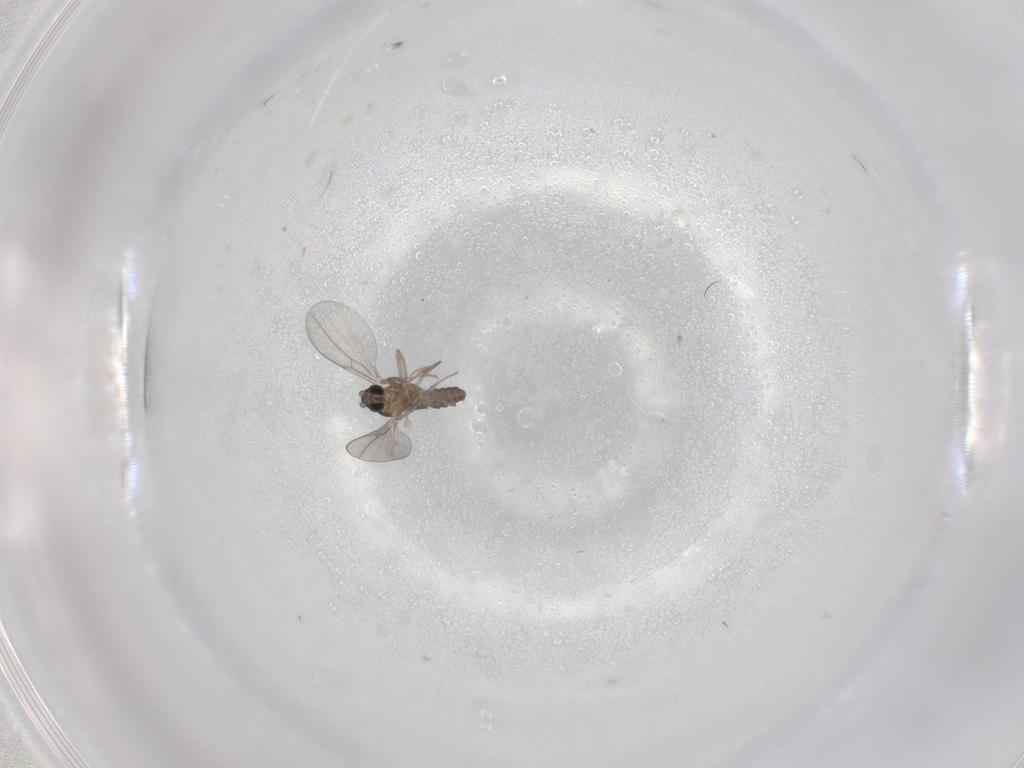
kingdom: Animalia
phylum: Arthropoda
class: Insecta
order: Diptera
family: Cecidomyiidae
